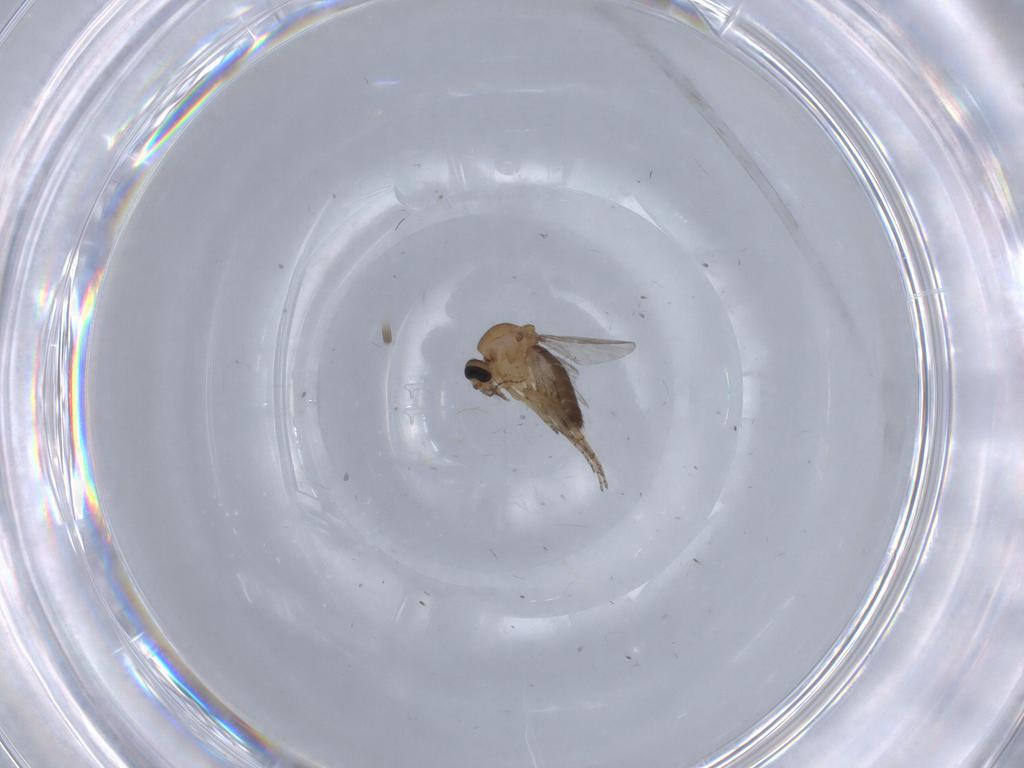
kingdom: Animalia
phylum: Arthropoda
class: Insecta
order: Diptera
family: Ceratopogonidae
